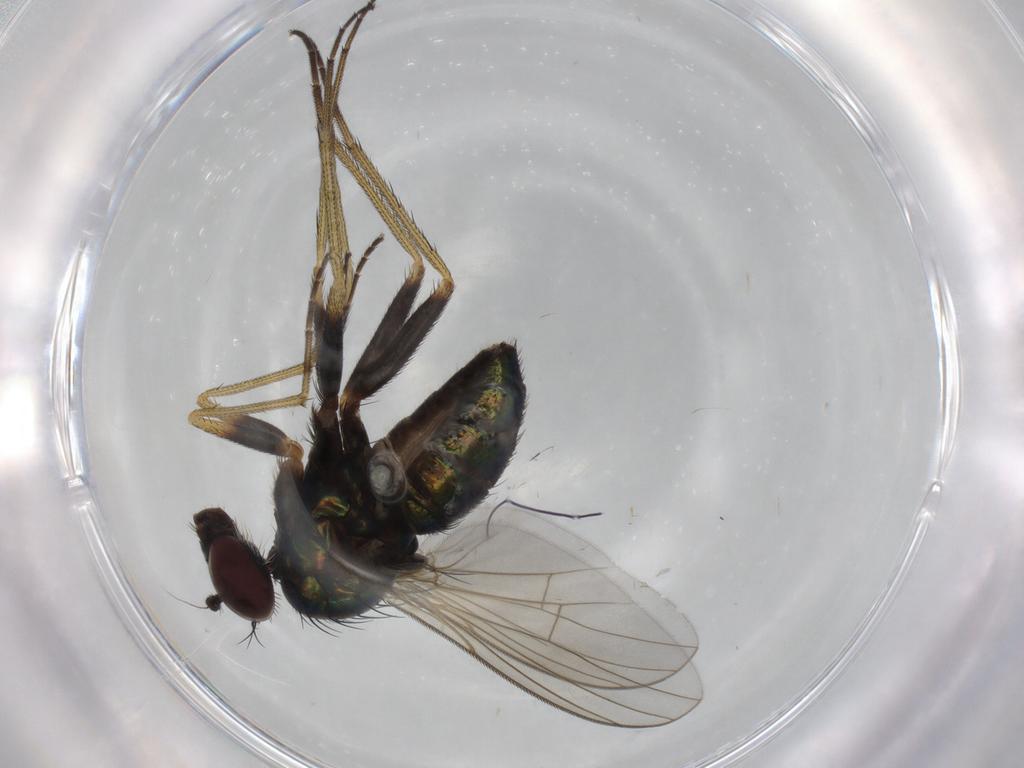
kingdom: Animalia
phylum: Arthropoda
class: Insecta
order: Diptera
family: Dolichopodidae
